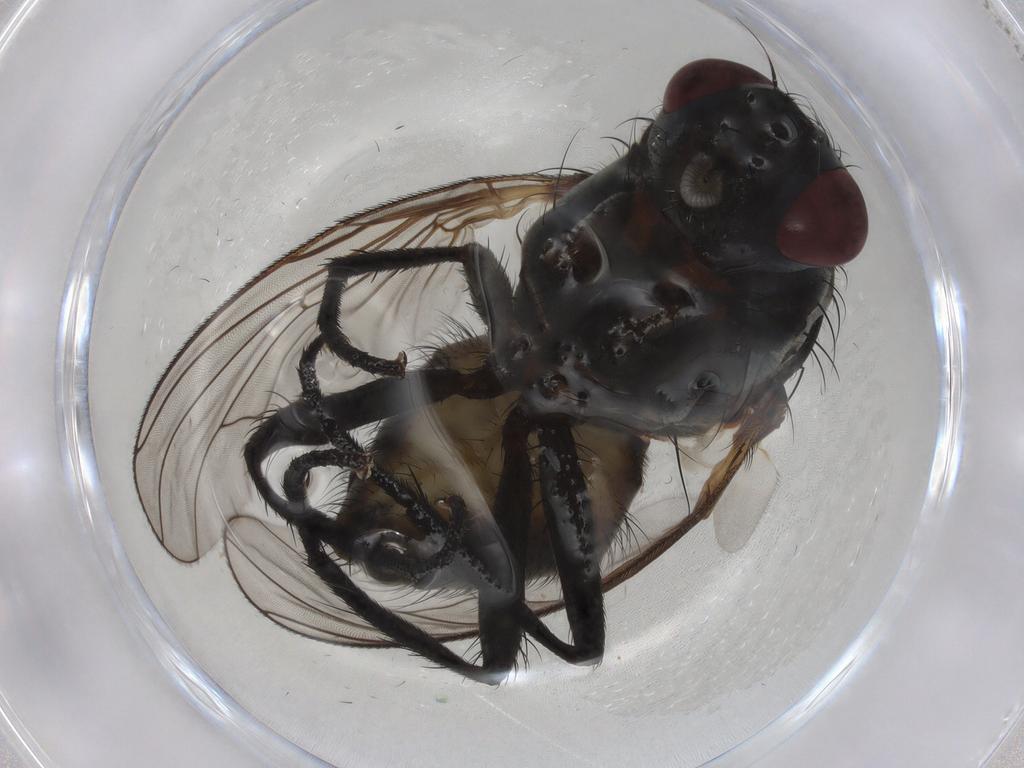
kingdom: Animalia
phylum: Arthropoda
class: Insecta
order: Diptera
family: Anthomyiidae
